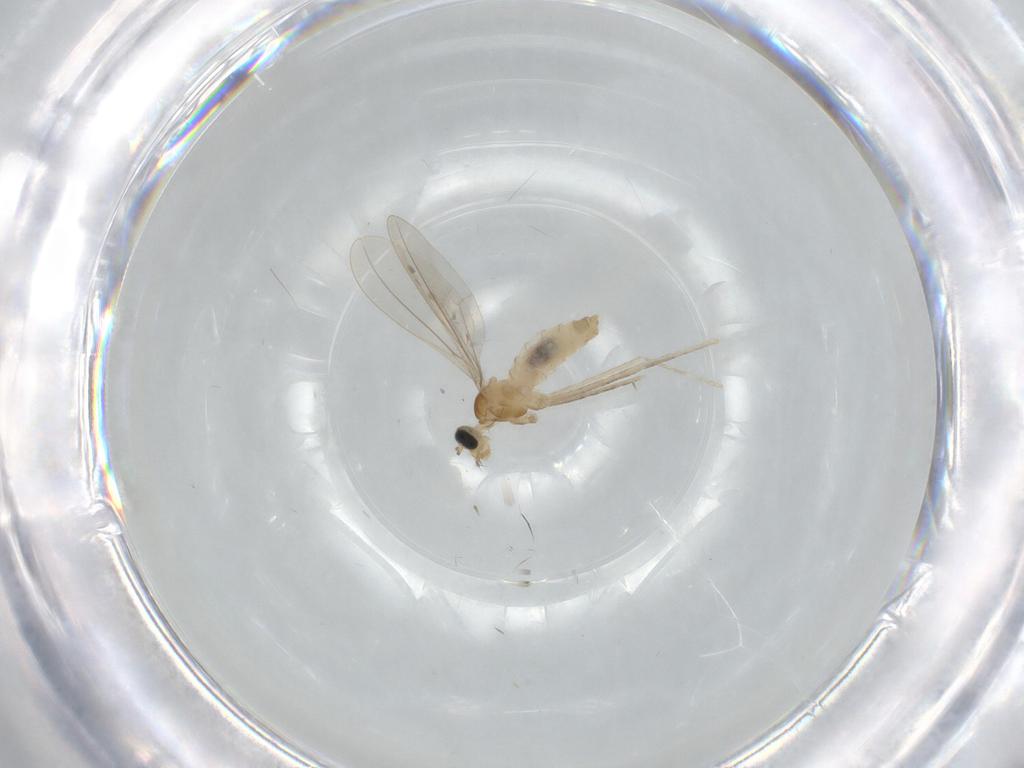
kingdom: Animalia
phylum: Arthropoda
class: Insecta
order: Diptera
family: Cecidomyiidae
